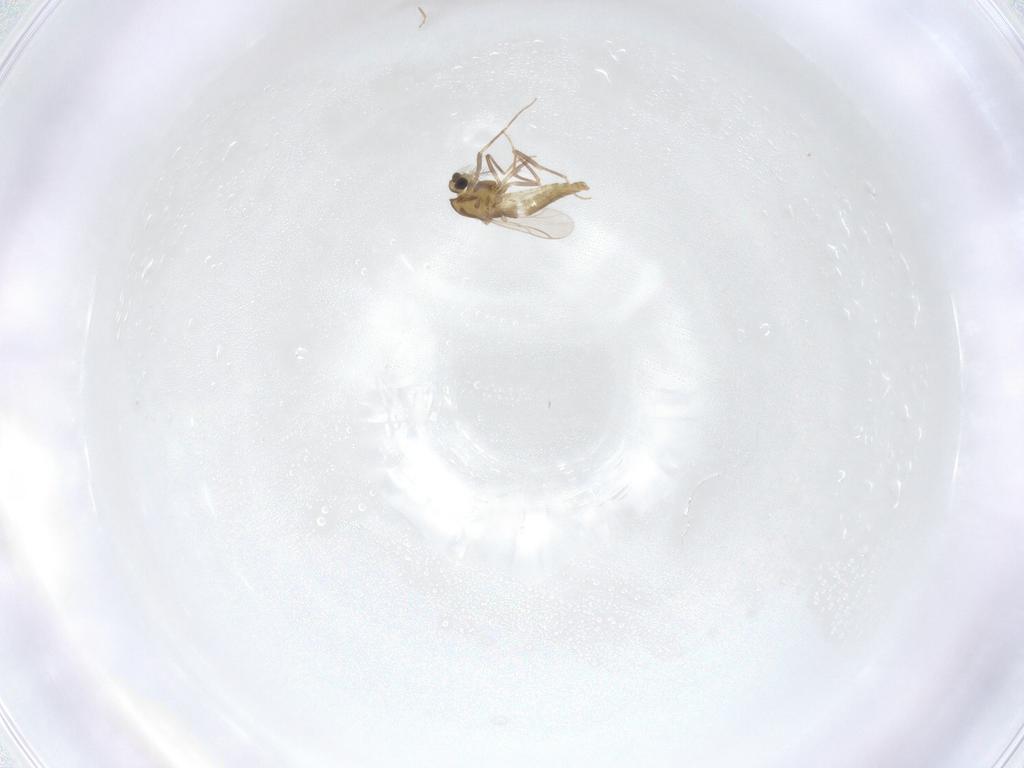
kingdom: Animalia
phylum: Arthropoda
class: Insecta
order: Diptera
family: Chironomidae
